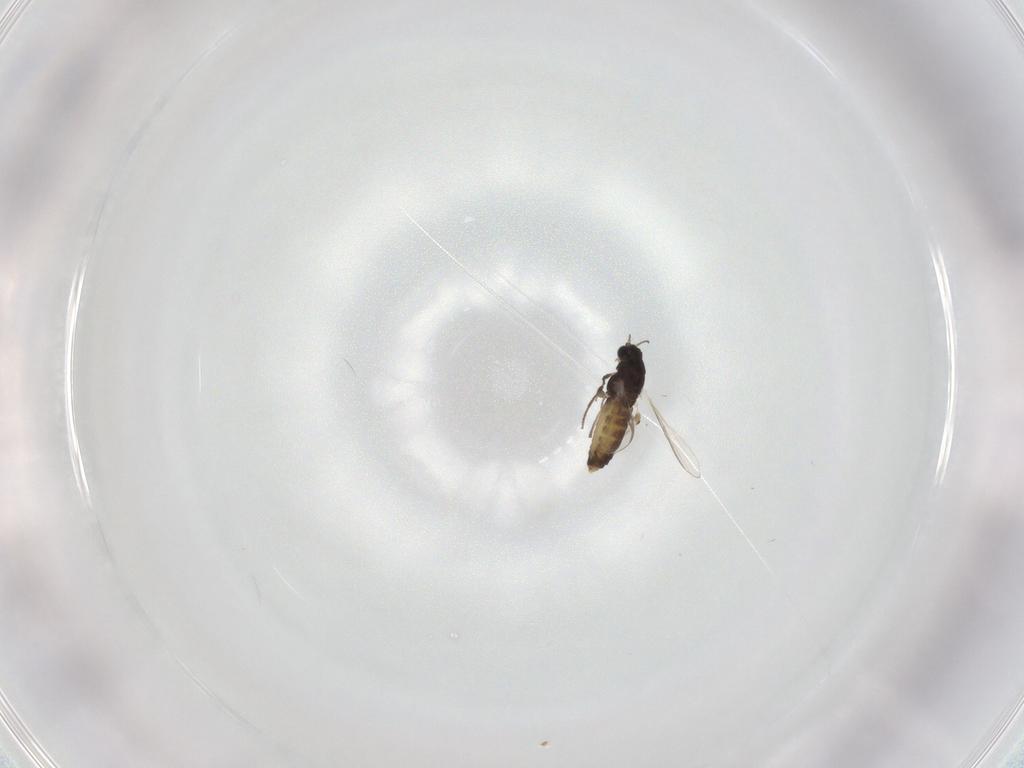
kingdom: Animalia
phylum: Arthropoda
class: Insecta
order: Diptera
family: Chironomidae
